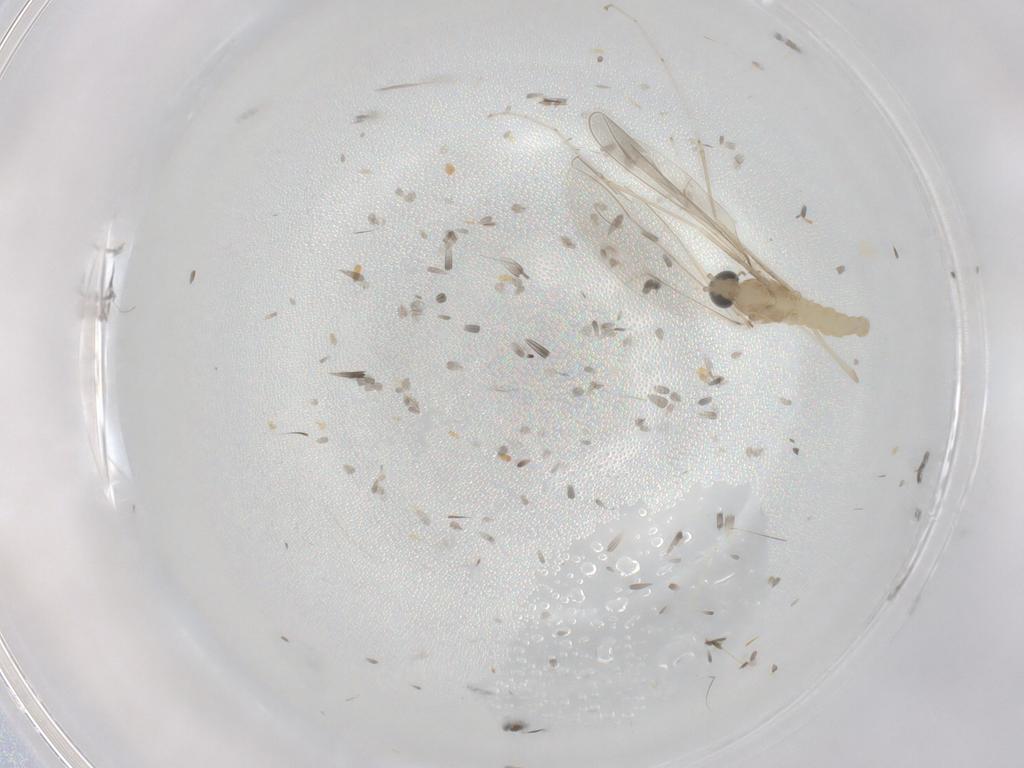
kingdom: Animalia
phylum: Arthropoda
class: Insecta
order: Diptera
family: Cecidomyiidae
